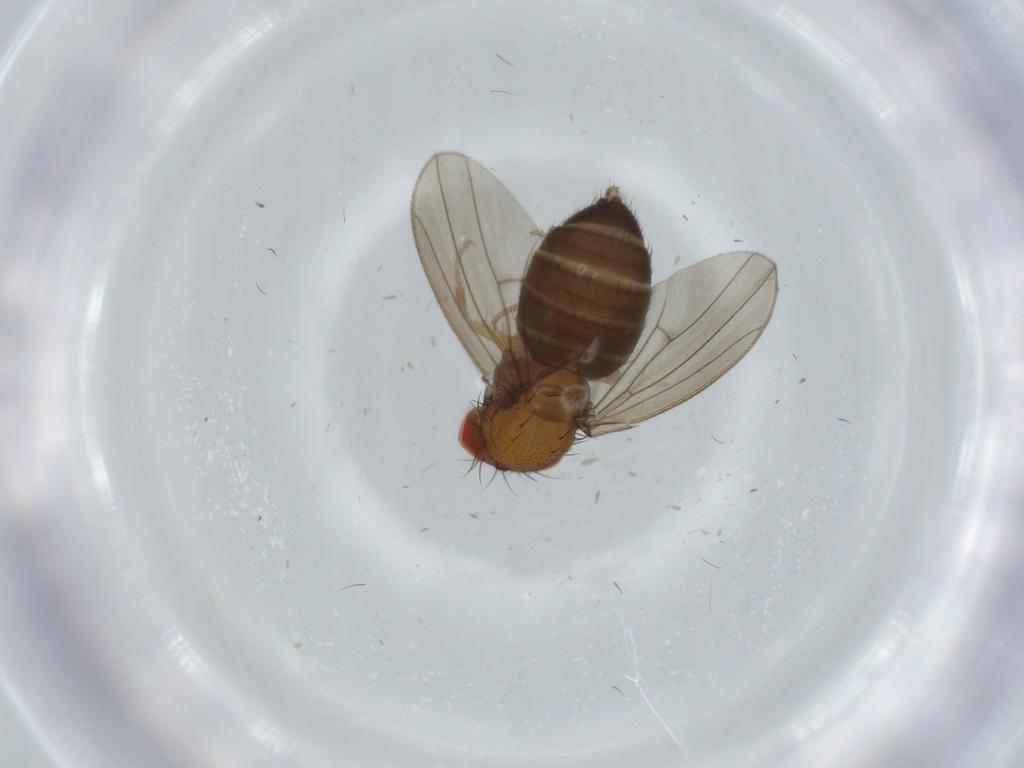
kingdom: Animalia
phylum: Arthropoda
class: Insecta
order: Diptera
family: Drosophilidae
